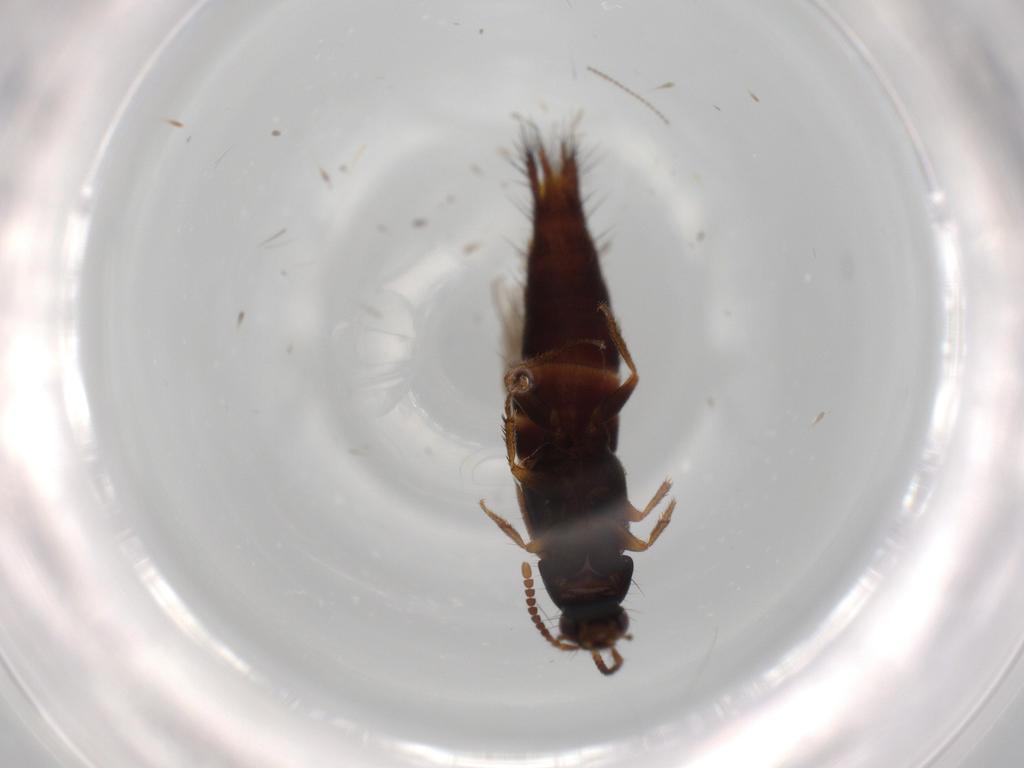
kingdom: Animalia
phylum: Arthropoda
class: Insecta
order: Coleoptera
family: Staphylinidae
